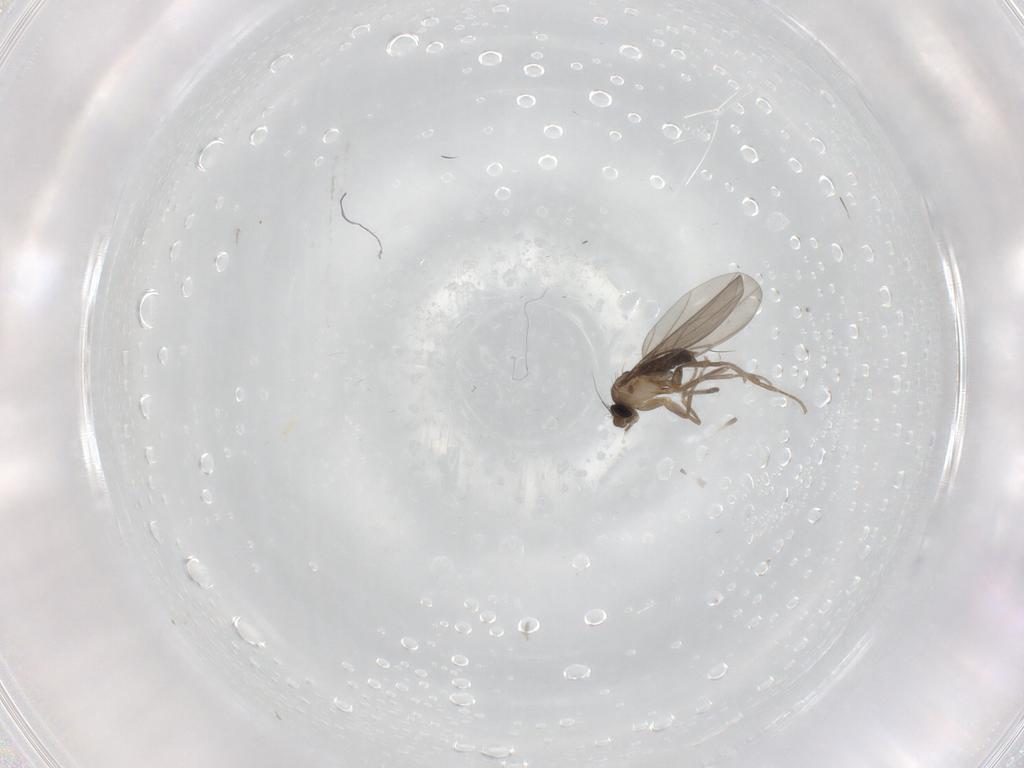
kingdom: Animalia
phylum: Arthropoda
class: Insecta
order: Diptera
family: Phoridae
